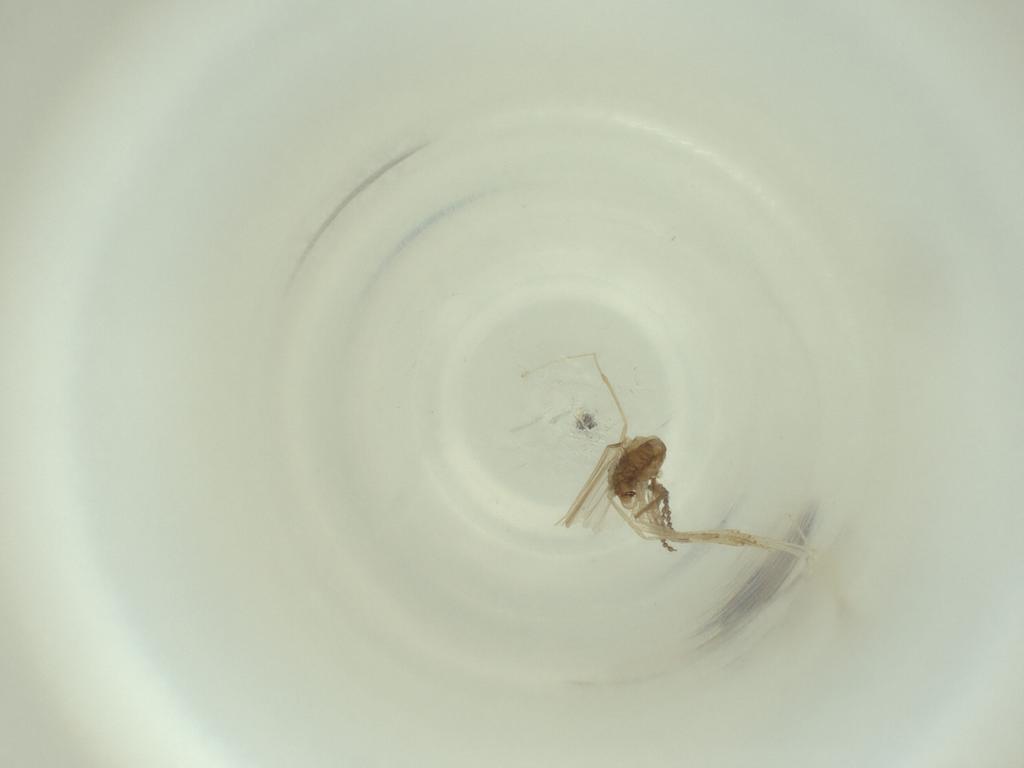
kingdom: Animalia
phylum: Arthropoda
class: Insecta
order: Diptera
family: Cecidomyiidae
